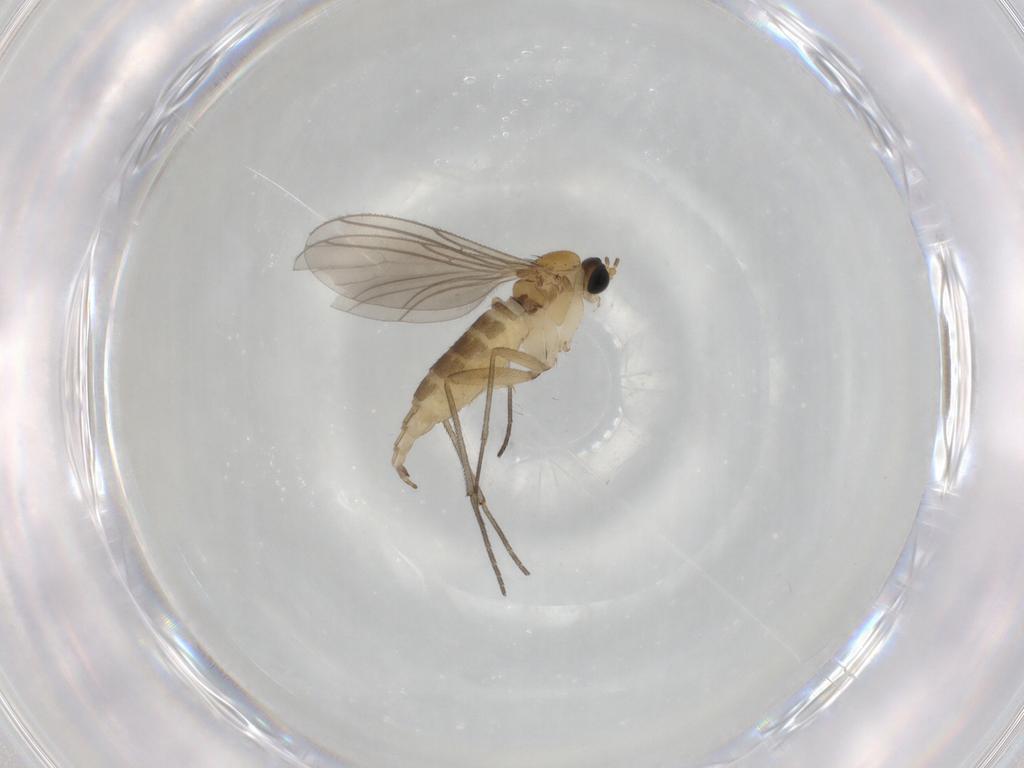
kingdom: Animalia
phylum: Arthropoda
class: Insecta
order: Diptera
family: Sciaridae
